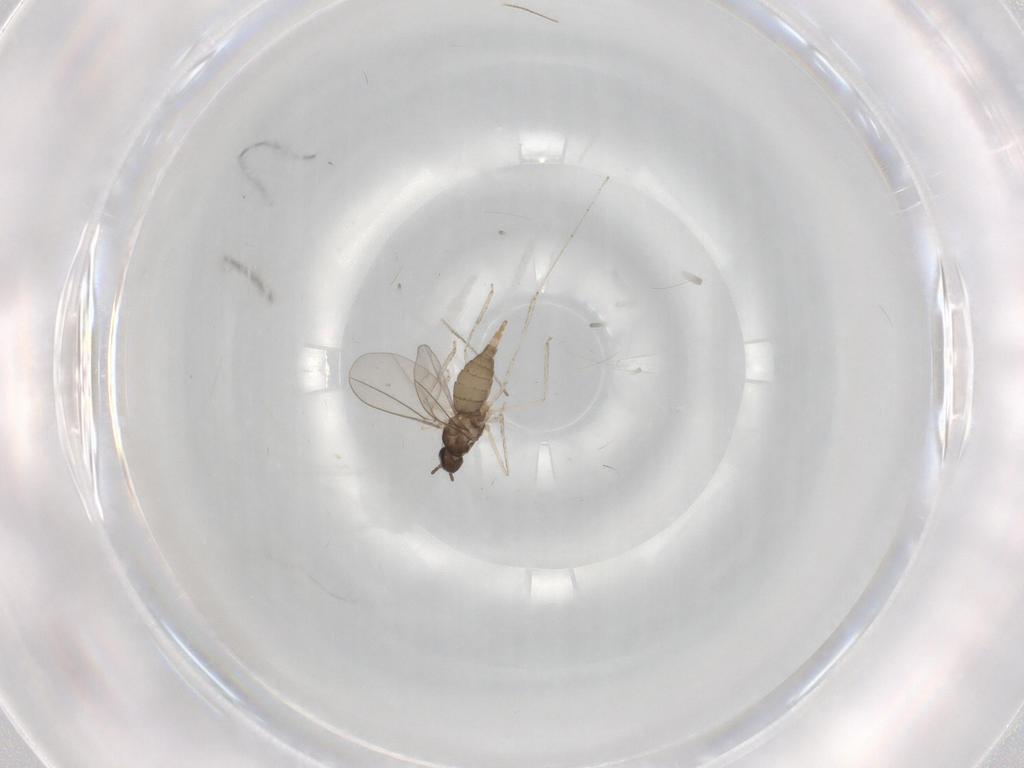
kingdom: Animalia
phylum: Arthropoda
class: Insecta
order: Diptera
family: Chironomidae
